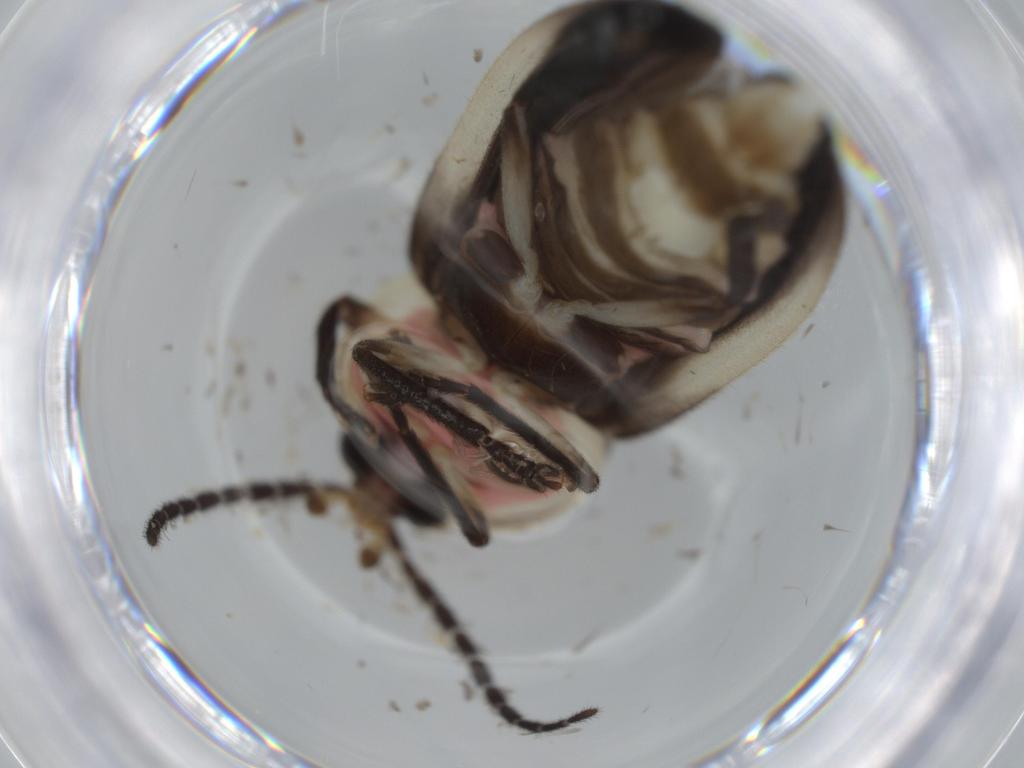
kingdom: Animalia
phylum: Arthropoda
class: Insecta
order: Coleoptera
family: Lampyridae
